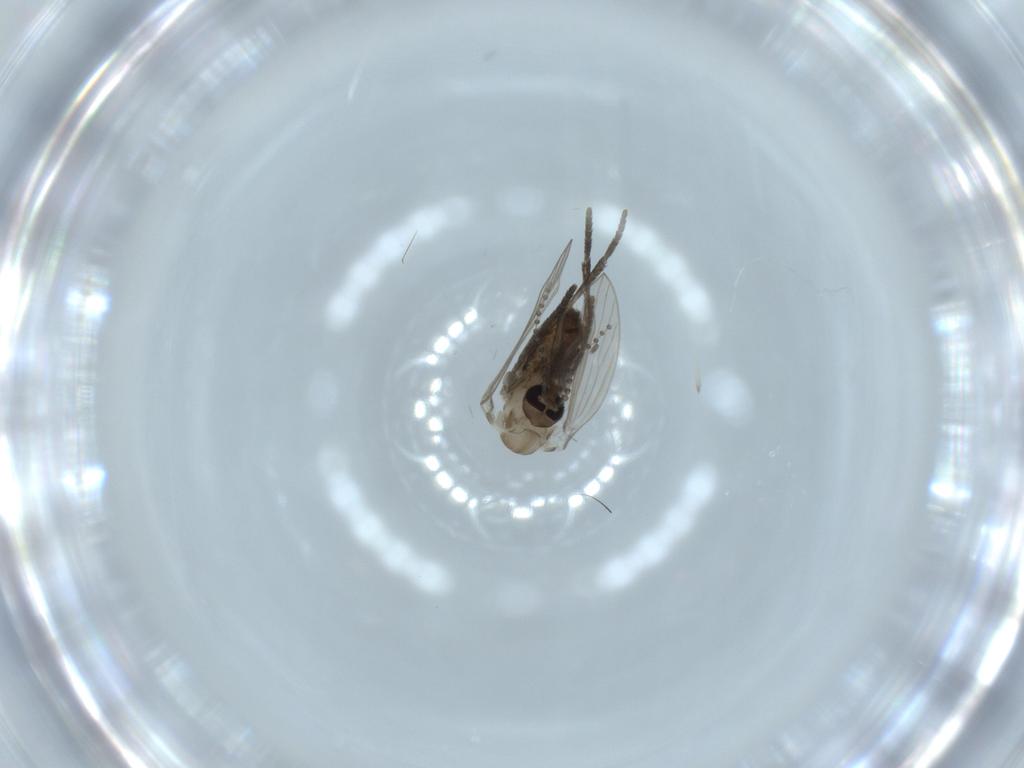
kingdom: Animalia
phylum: Arthropoda
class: Insecta
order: Diptera
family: Psychodidae
